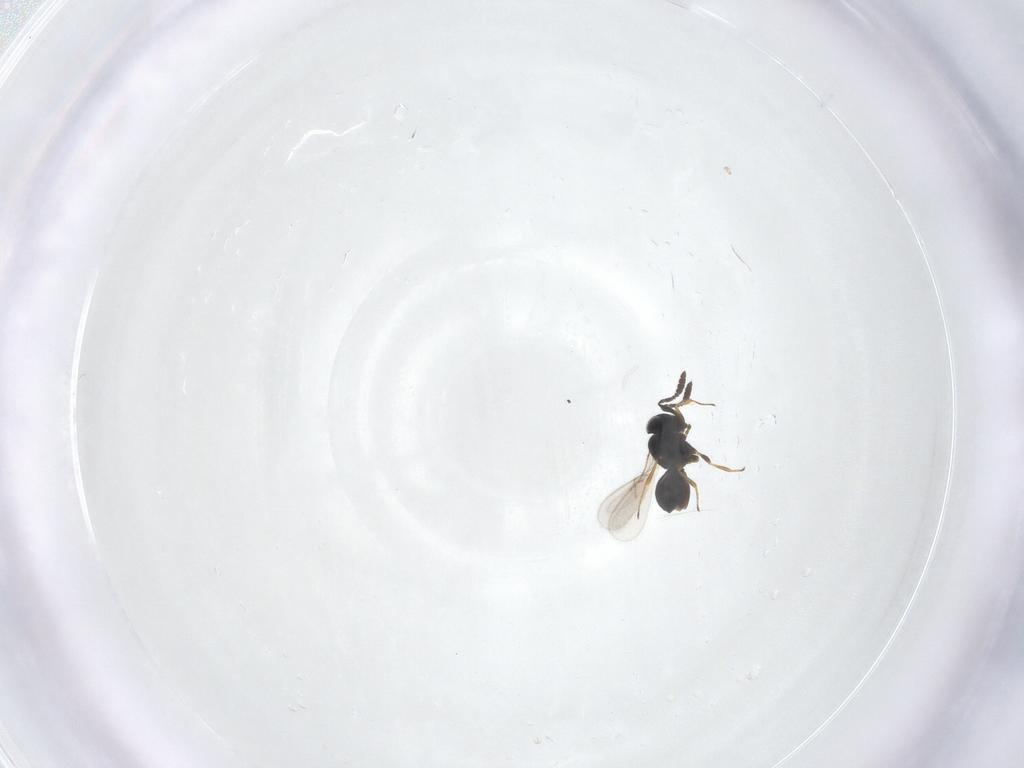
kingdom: Animalia
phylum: Arthropoda
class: Insecta
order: Hymenoptera
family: Scelionidae
